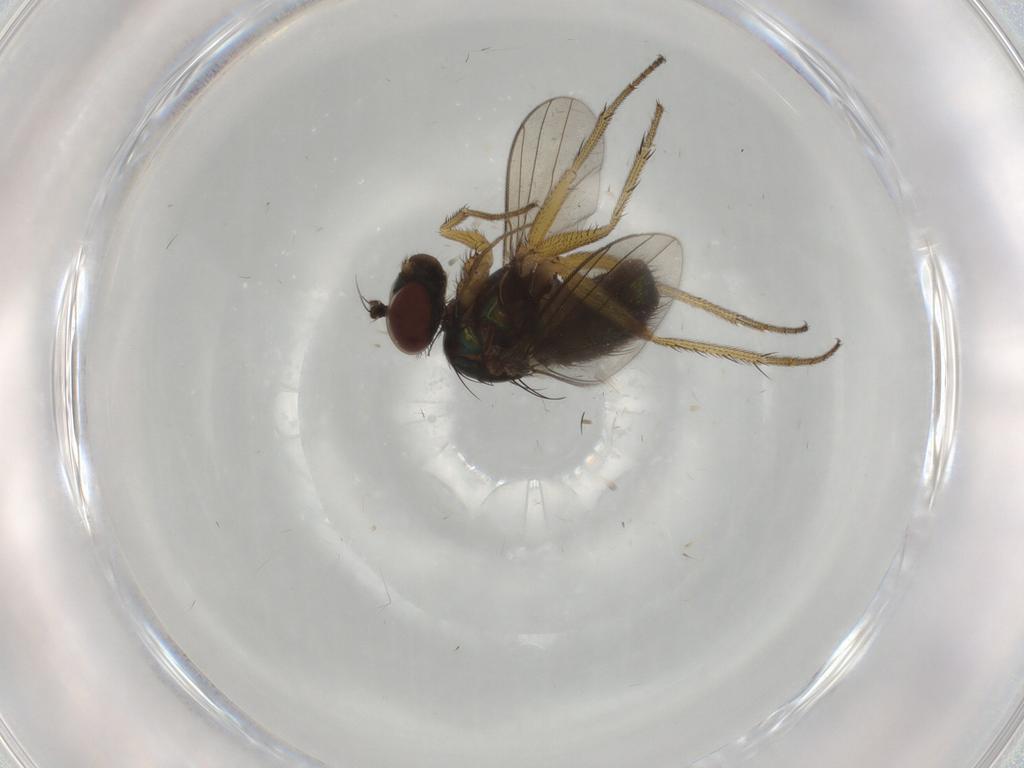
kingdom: Animalia
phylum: Arthropoda
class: Insecta
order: Diptera
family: Dolichopodidae
